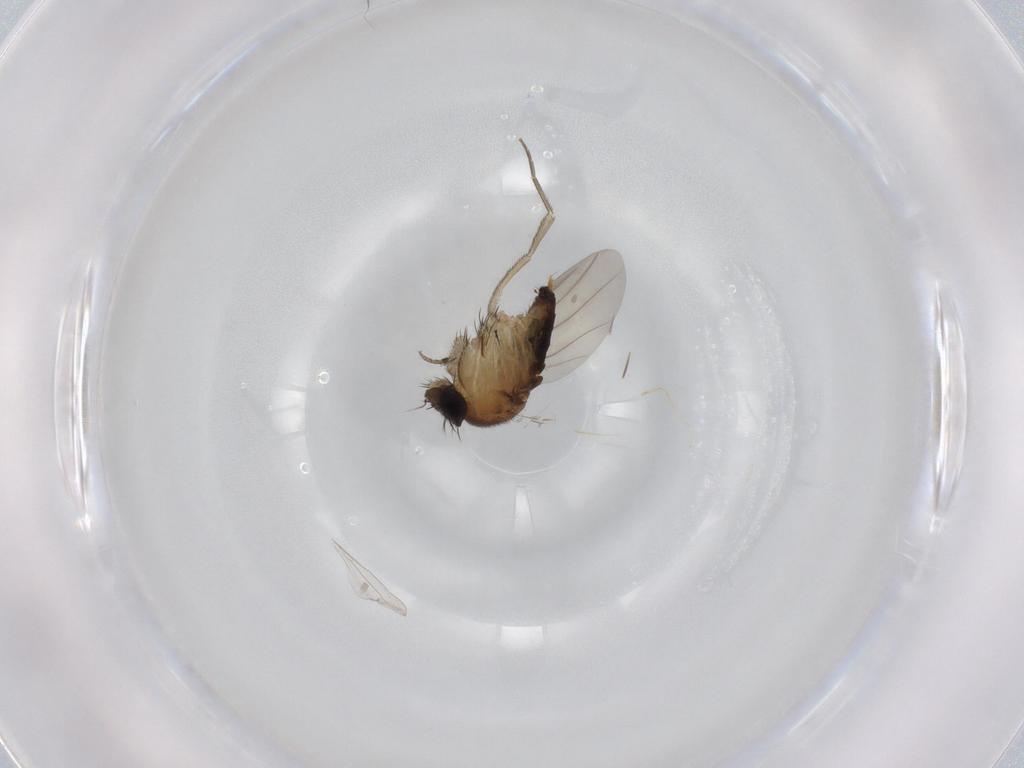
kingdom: Animalia
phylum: Arthropoda
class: Insecta
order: Diptera
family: Phoridae
